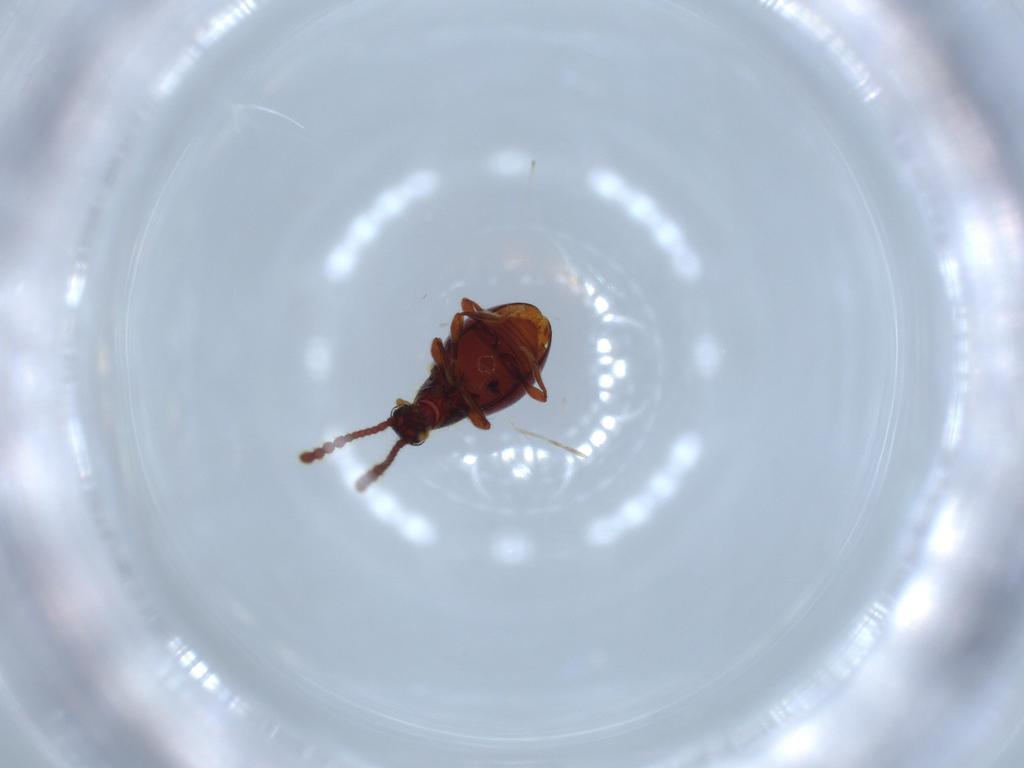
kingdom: Animalia
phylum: Arthropoda
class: Insecta
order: Coleoptera
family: Staphylinidae
